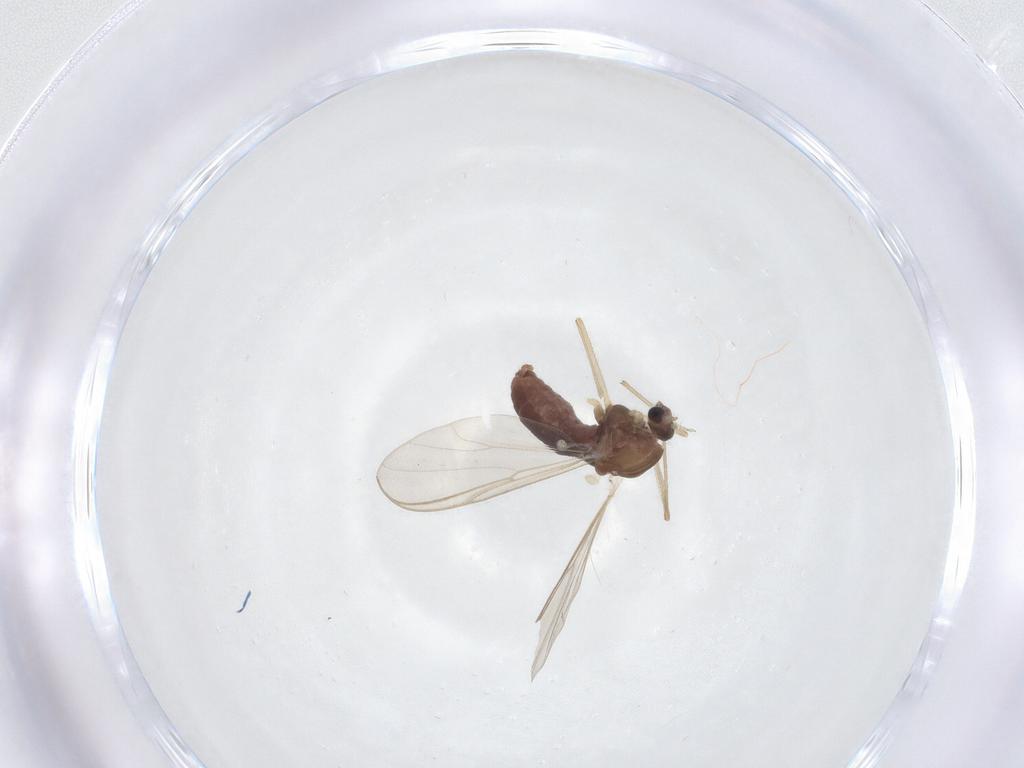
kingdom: Animalia
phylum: Arthropoda
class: Insecta
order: Diptera
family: Chironomidae
